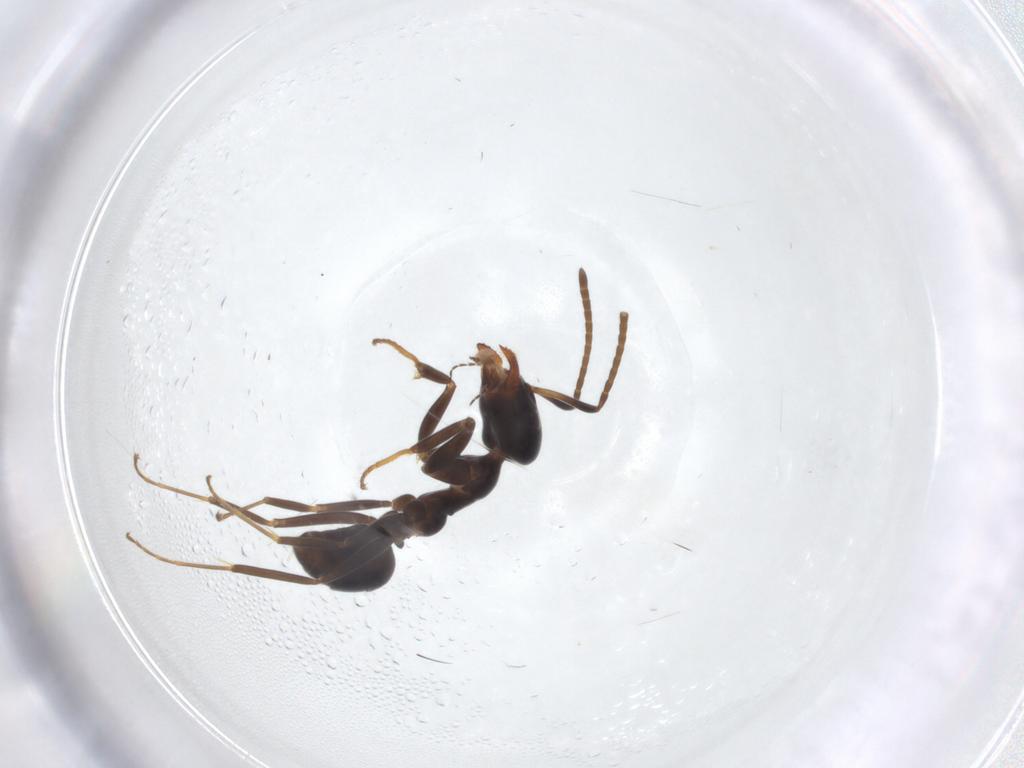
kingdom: Animalia
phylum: Arthropoda
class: Insecta
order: Hymenoptera
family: Formicidae
